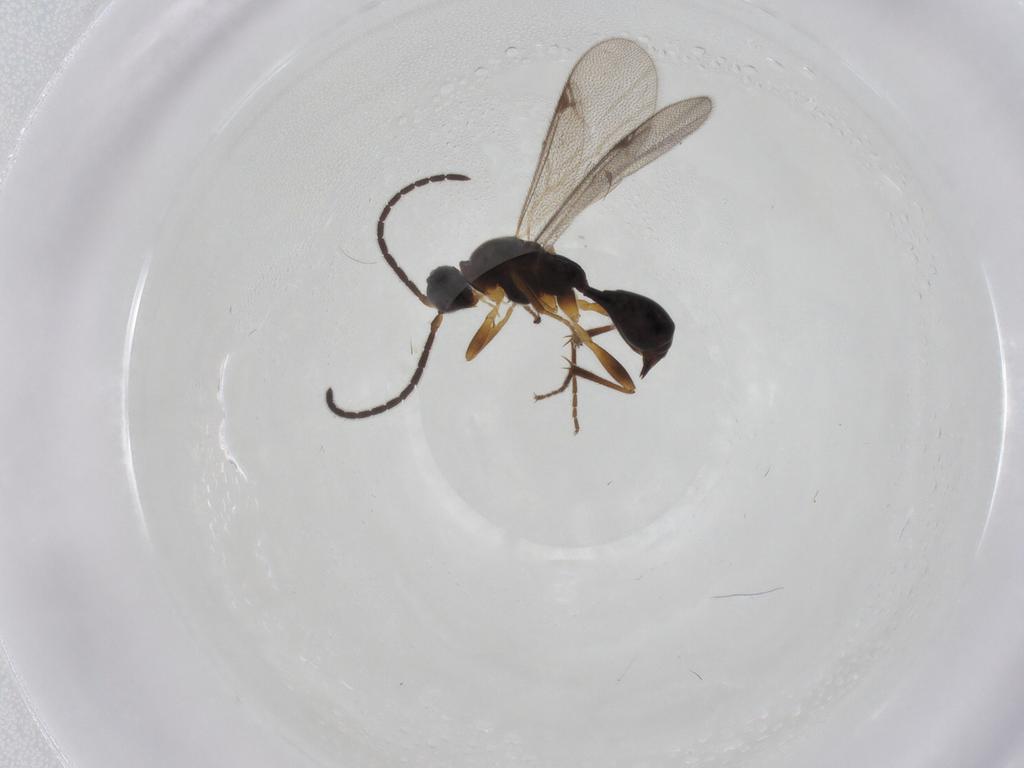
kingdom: Animalia
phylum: Arthropoda
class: Insecta
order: Hymenoptera
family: Proctotrupidae
